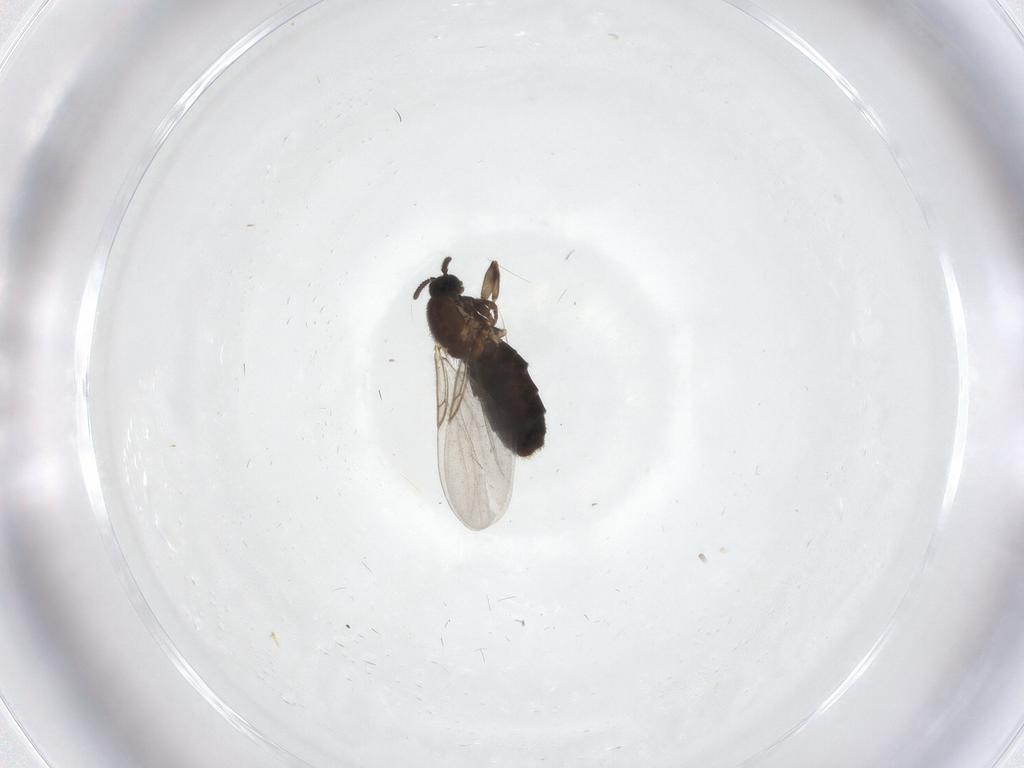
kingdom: Animalia
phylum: Arthropoda
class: Insecta
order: Diptera
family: Scatopsidae
